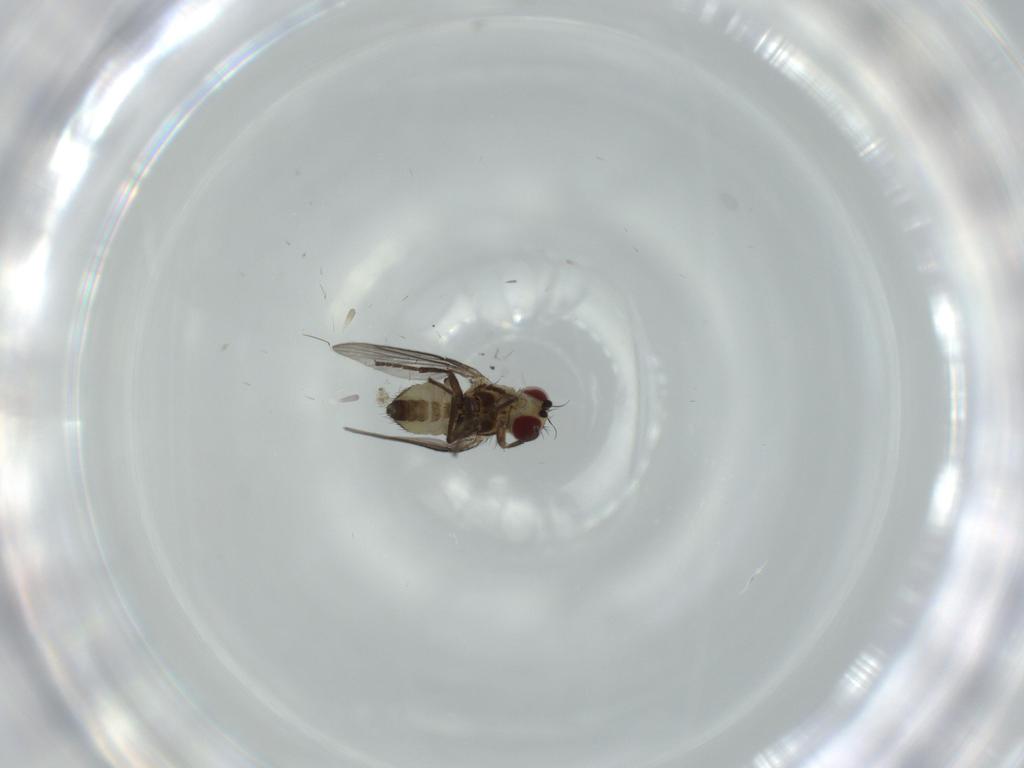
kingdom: Animalia
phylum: Arthropoda
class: Insecta
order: Diptera
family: Agromyzidae
